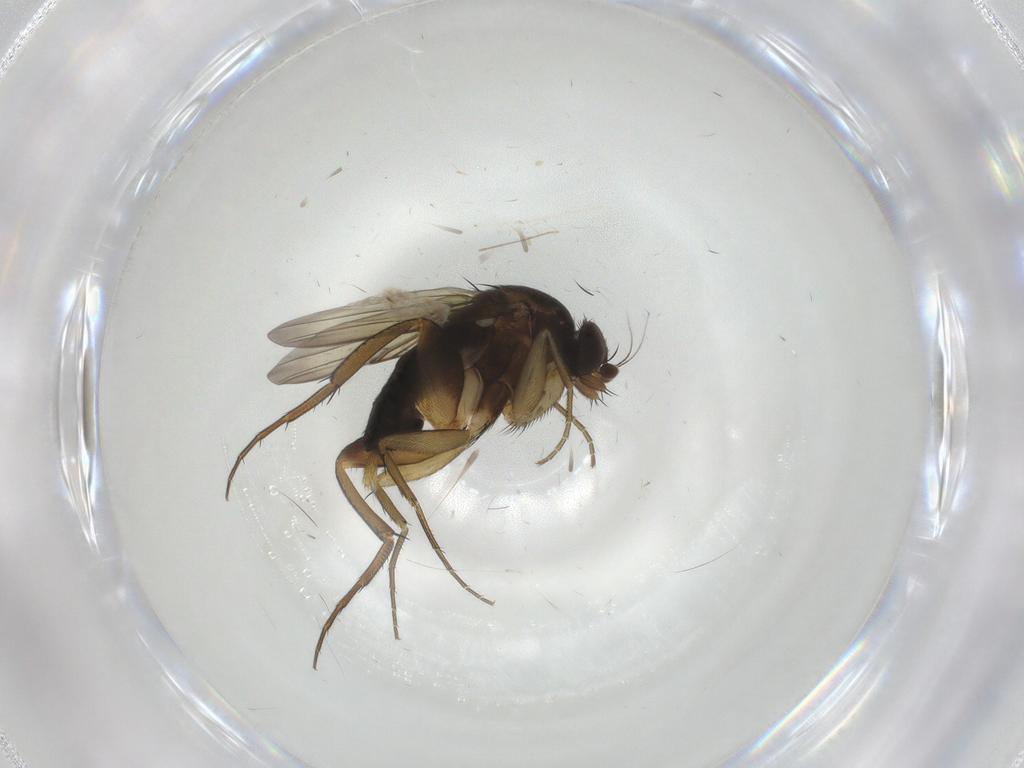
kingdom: Animalia
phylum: Arthropoda
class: Insecta
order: Diptera
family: Phoridae
